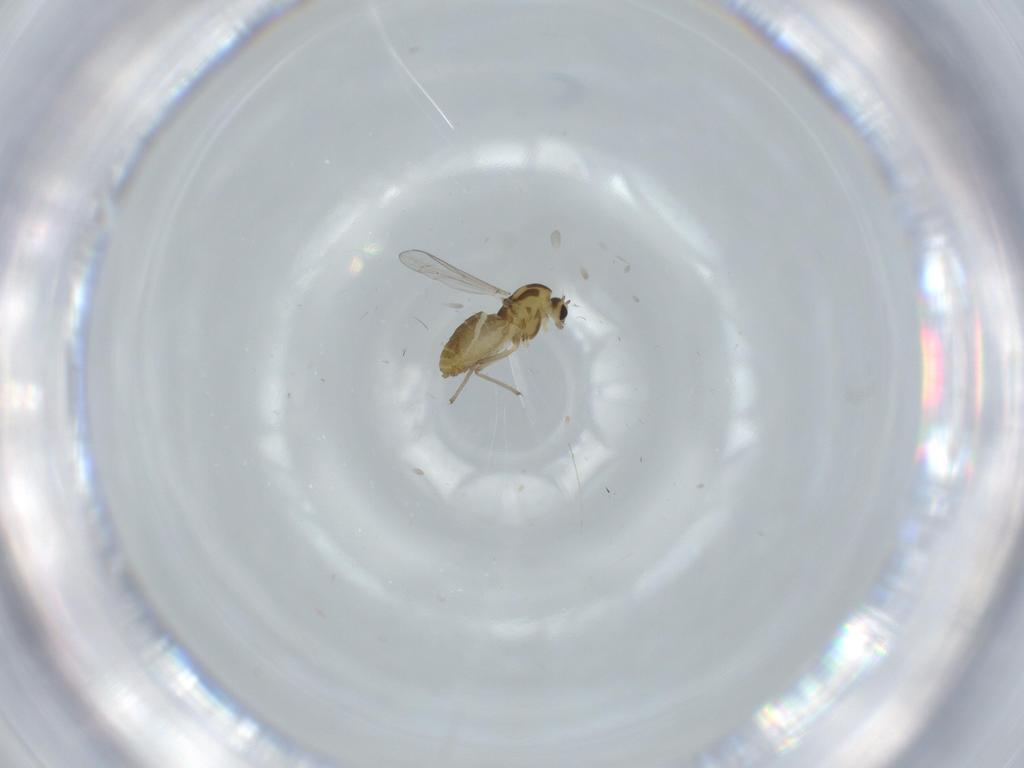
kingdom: Animalia
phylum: Arthropoda
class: Insecta
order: Diptera
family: Chironomidae
